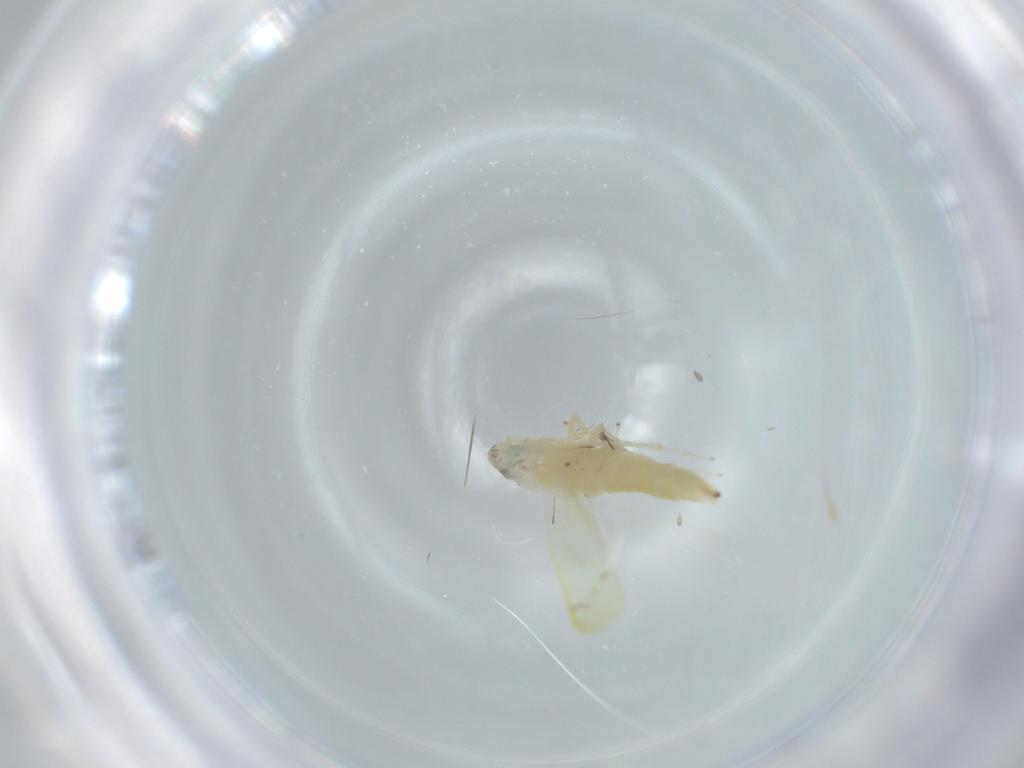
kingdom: Animalia
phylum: Arthropoda
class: Insecta
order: Hemiptera
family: Cicadellidae
